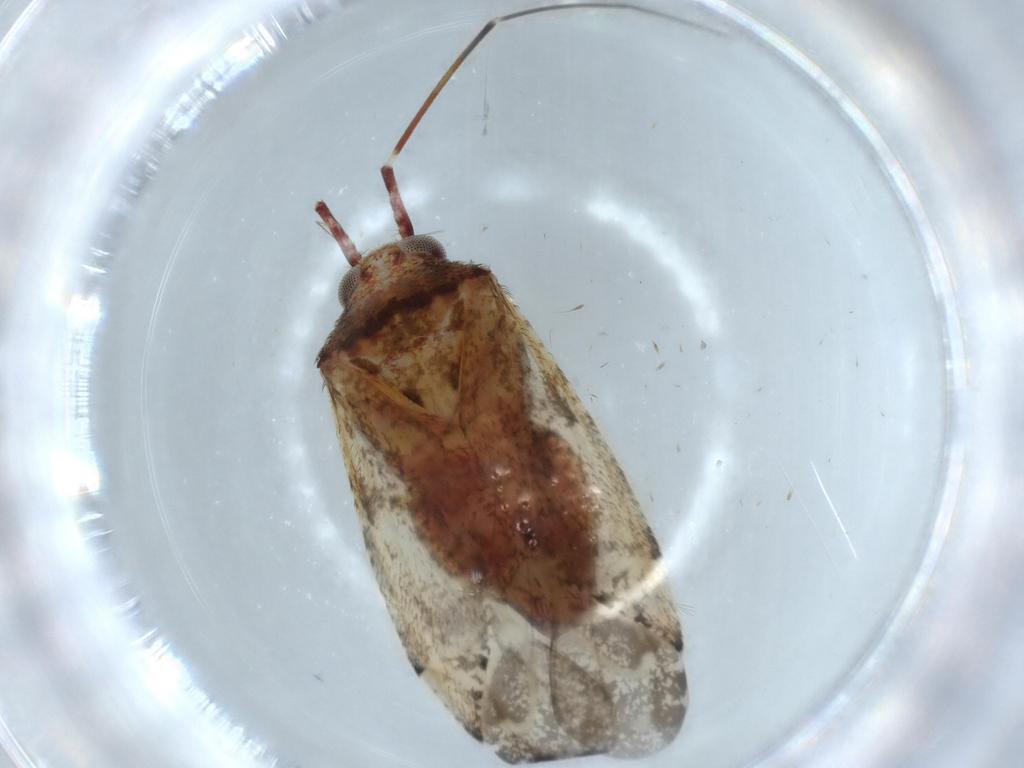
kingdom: Animalia
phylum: Arthropoda
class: Insecta
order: Hemiptera
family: Miridae
